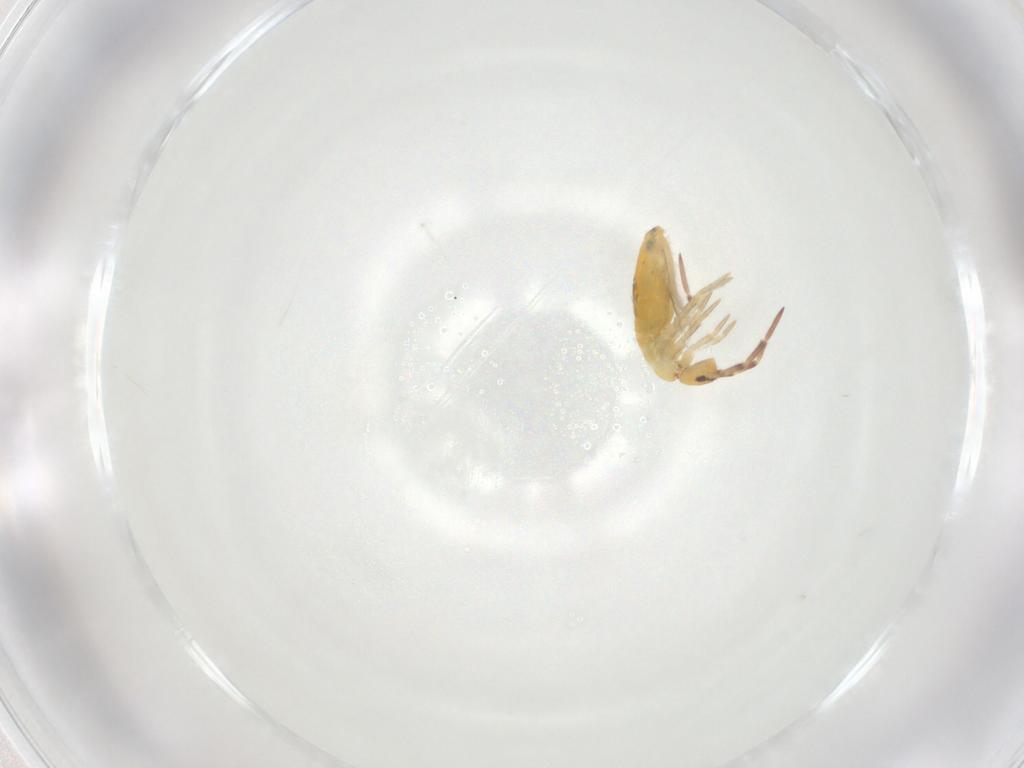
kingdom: Animalia
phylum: Arthropoda
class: Collembola
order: Entomobryomorpha
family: Entomobryidae
